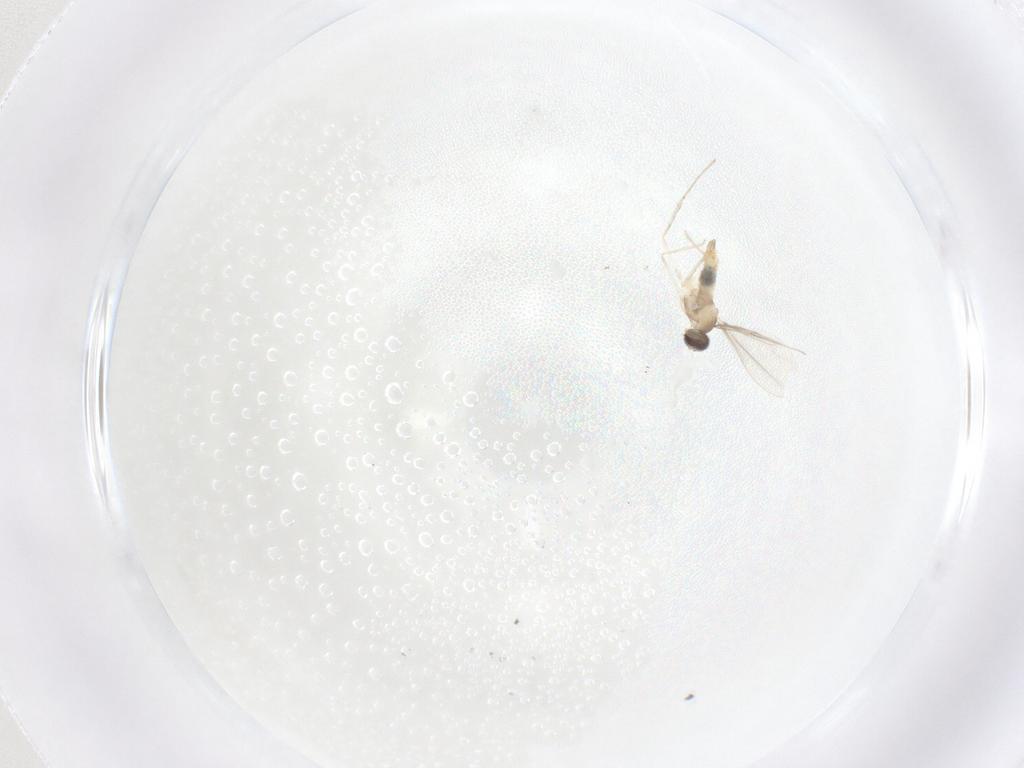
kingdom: Animalia
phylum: Arthropoda
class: Insecta
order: Diptera
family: Cecidomyiidae
